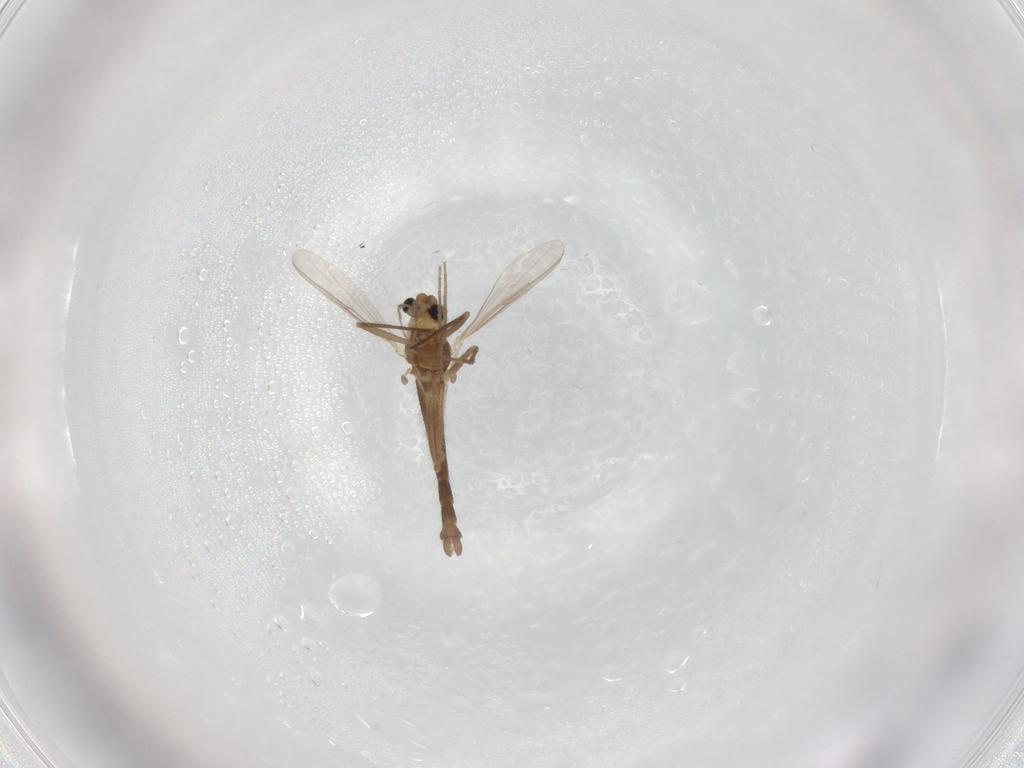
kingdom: Animalia
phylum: Arthropoda
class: Insecta
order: Diptera
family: Chironomidae
